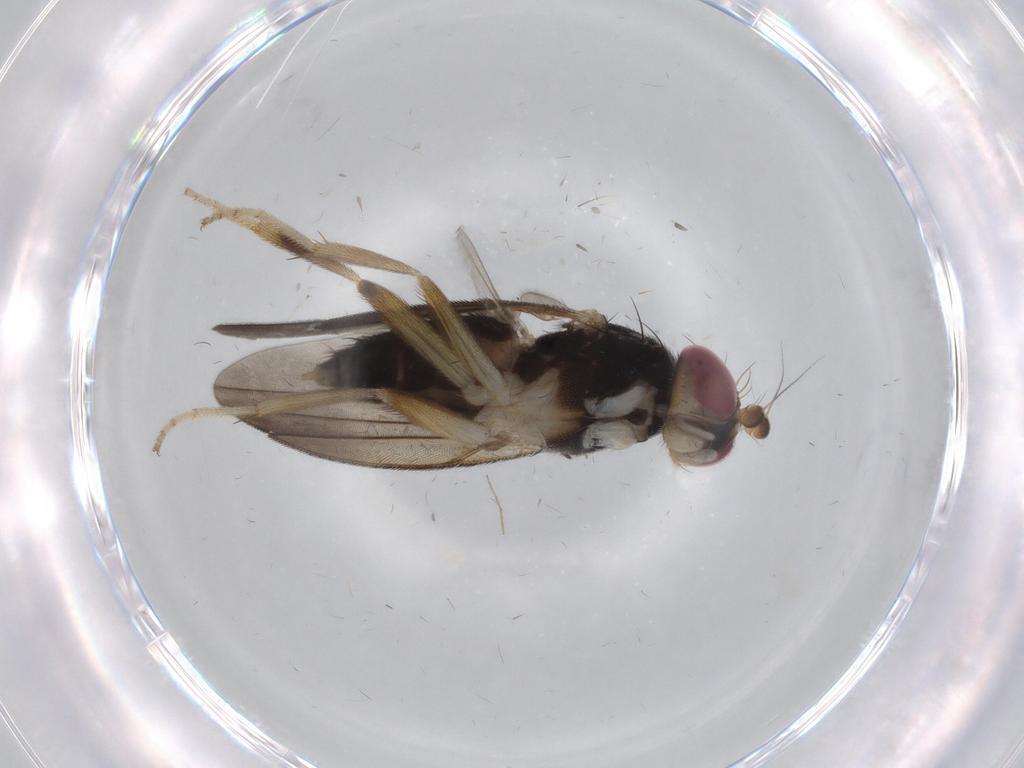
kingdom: Animalia
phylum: Arthropoda
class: Insecta
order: Diptera
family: Clusiidae
